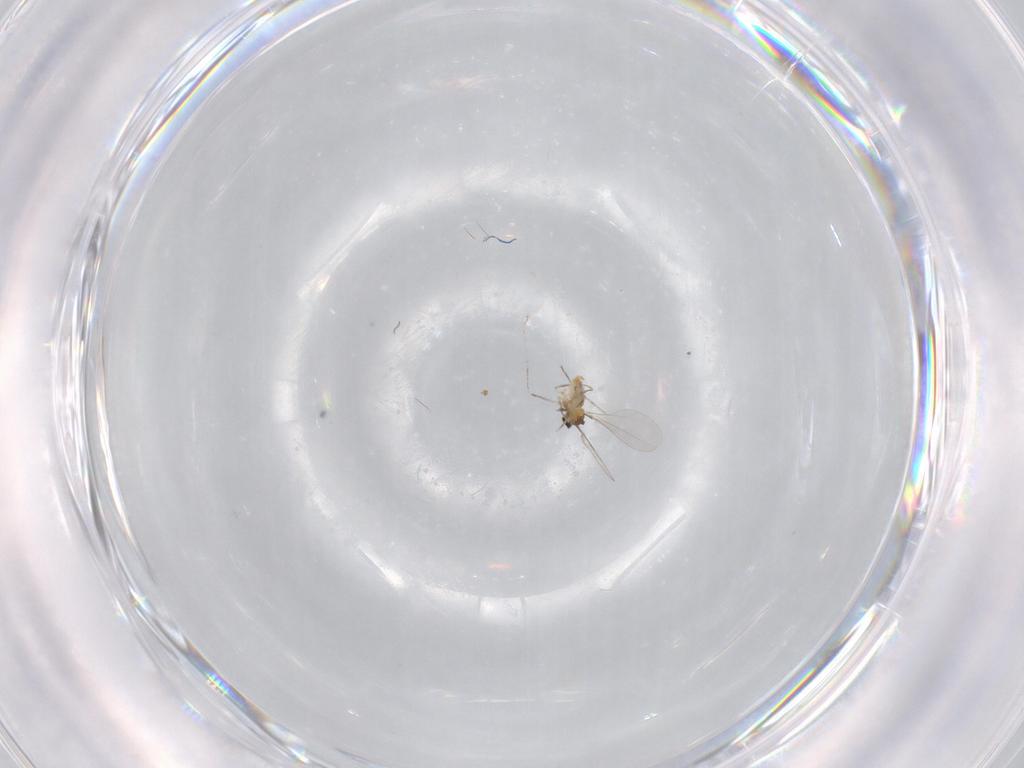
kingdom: Animalia
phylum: Arthropoda
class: Insecta
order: Diptera
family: Cecidomyiidae
